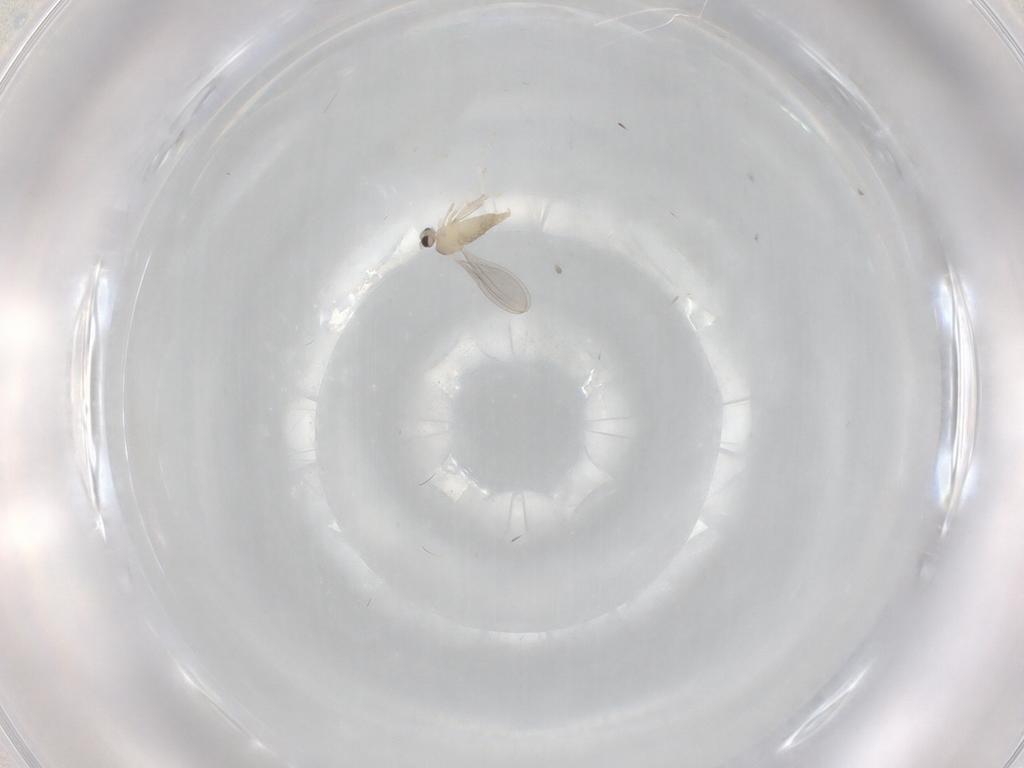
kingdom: Animalia
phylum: Arthropoda
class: Insecta
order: Diptera
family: Cecidomyiidae
